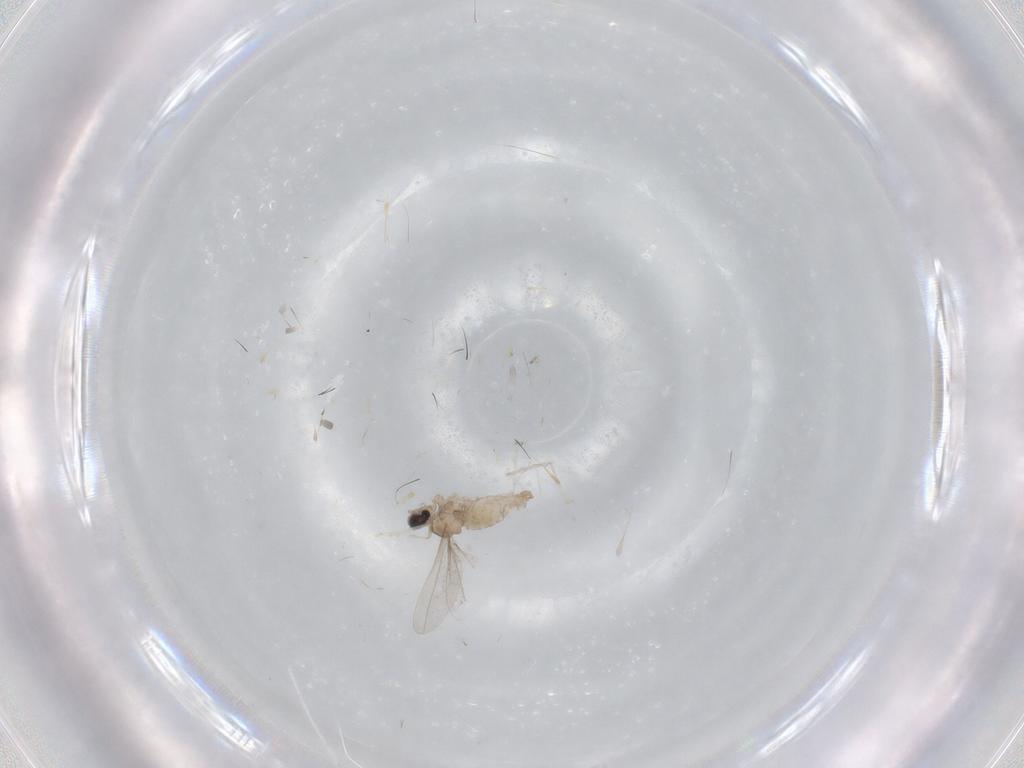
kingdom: Animalia
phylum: Arthropoda
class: Insecta
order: Diptera
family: Cecidomyiidae
